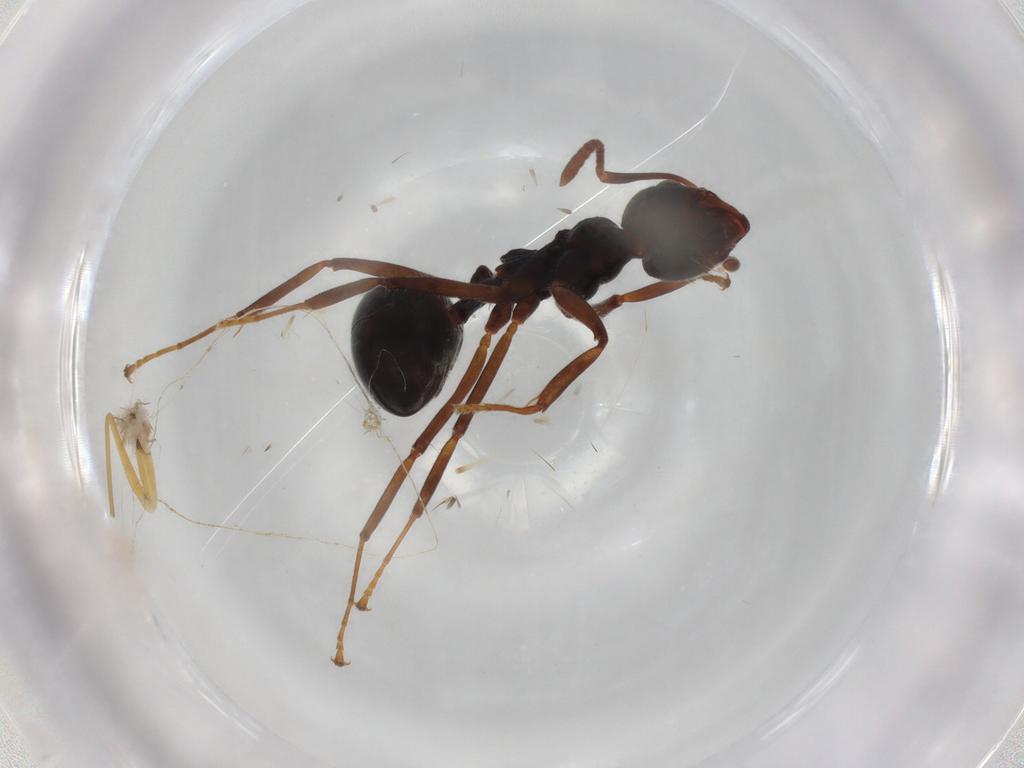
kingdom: Animalia
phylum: Arthropoda
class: Insecta
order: Hymenoptera
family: Formicidae
